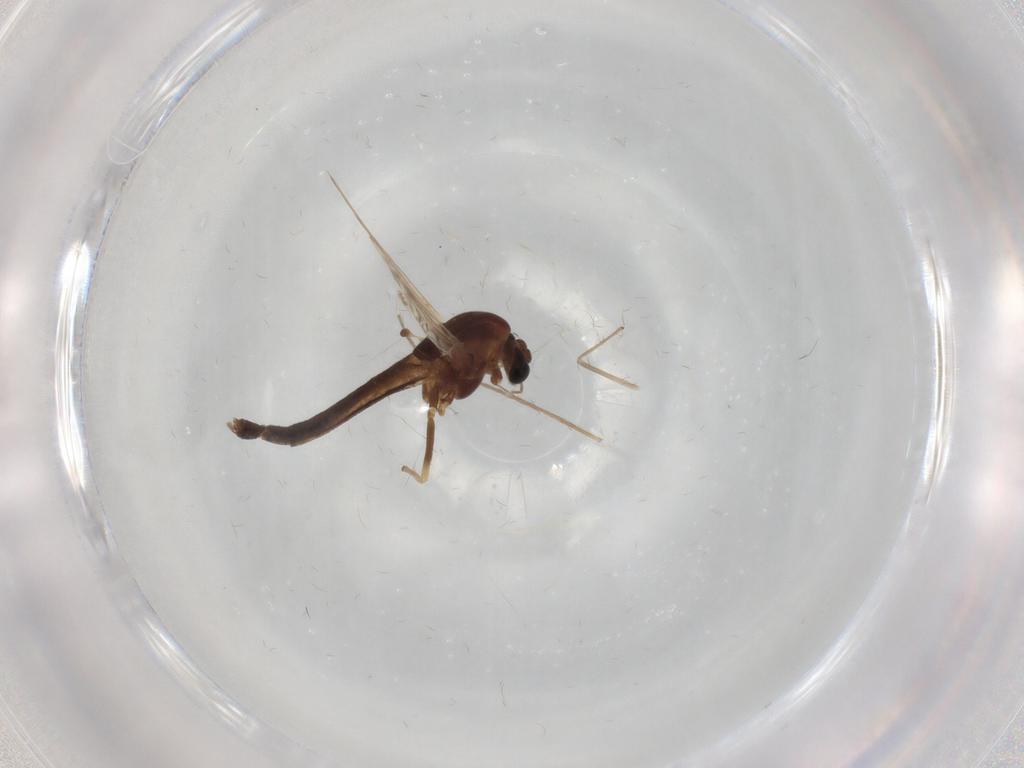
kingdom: Animalia
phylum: Arthropoda
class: Insecta
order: Diptera
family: Chironomidae
